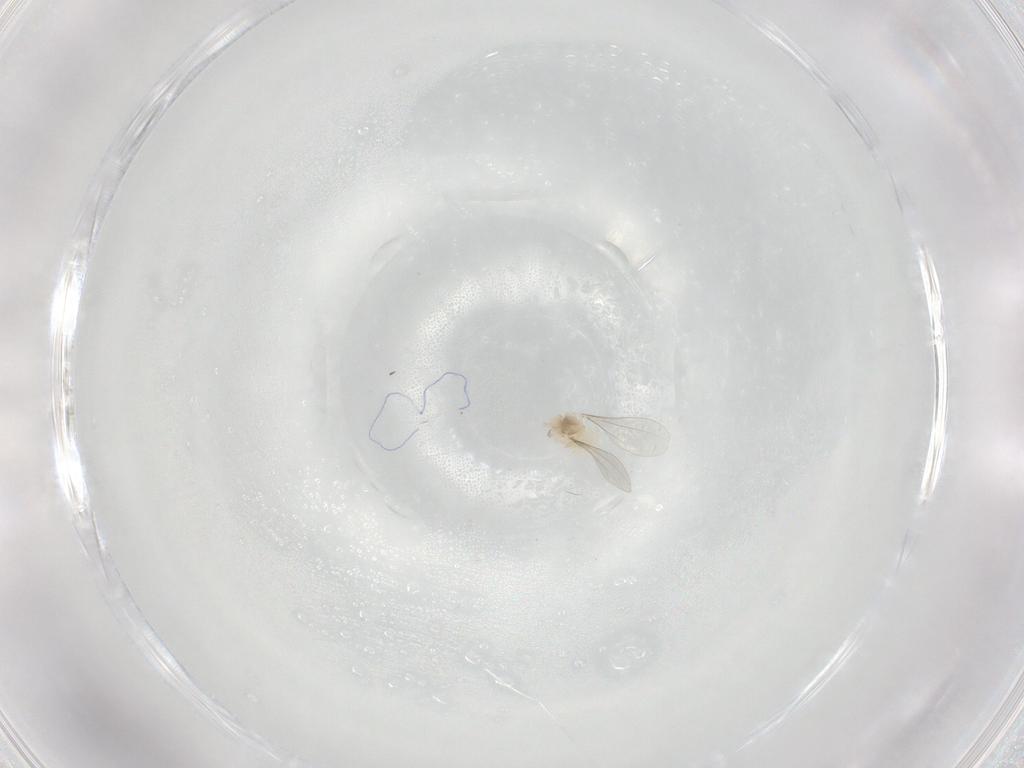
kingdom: Animalia
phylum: Arthropoda
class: Insecta
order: Diptera
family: Cecidomyiidae
